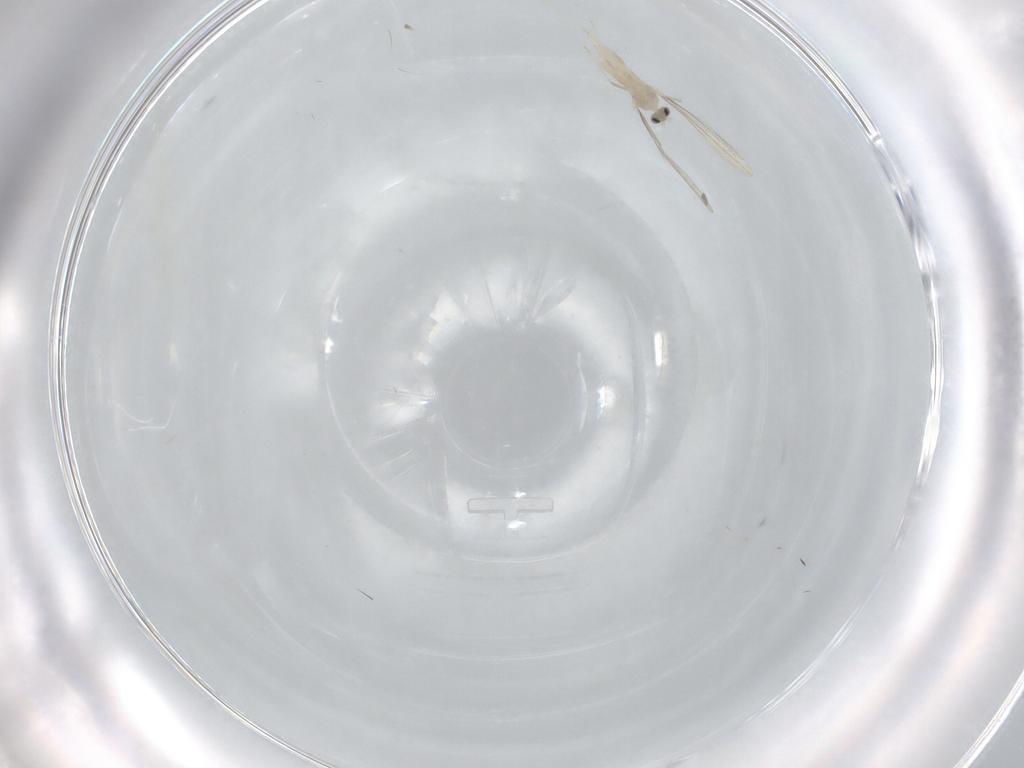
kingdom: Animalia
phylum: Arthropoda
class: Insecta
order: Diptera
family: Cecidomyiidae
